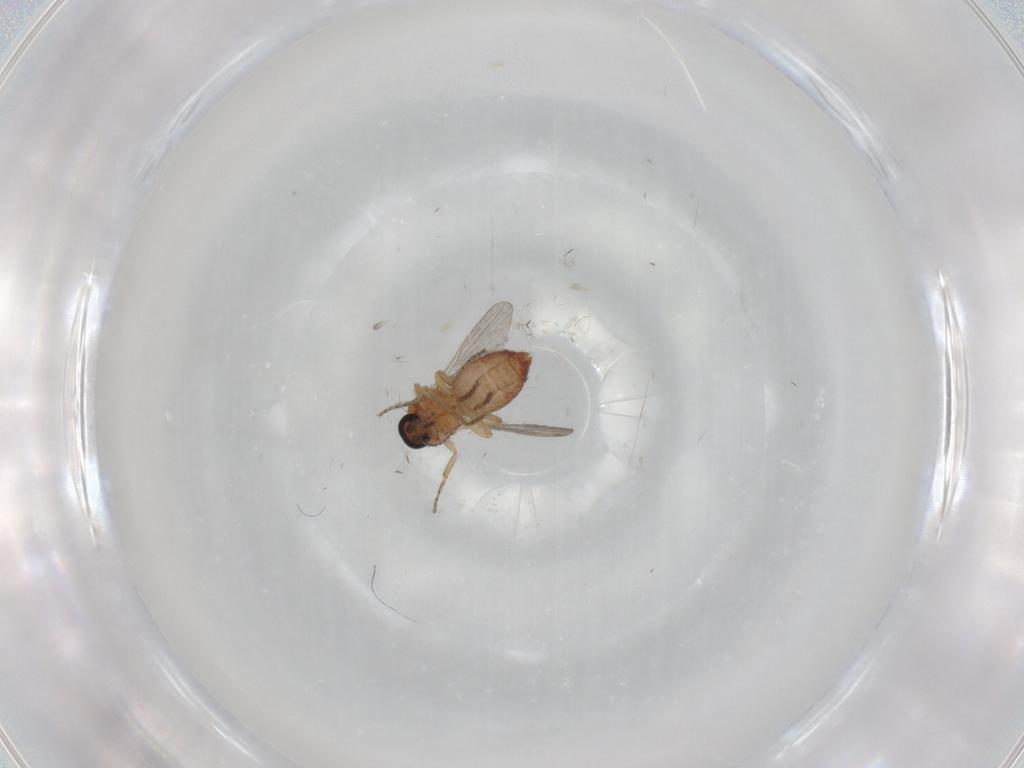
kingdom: Animalia
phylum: Arthropoda
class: Insecta
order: Diptera
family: Ceratopogonidae
